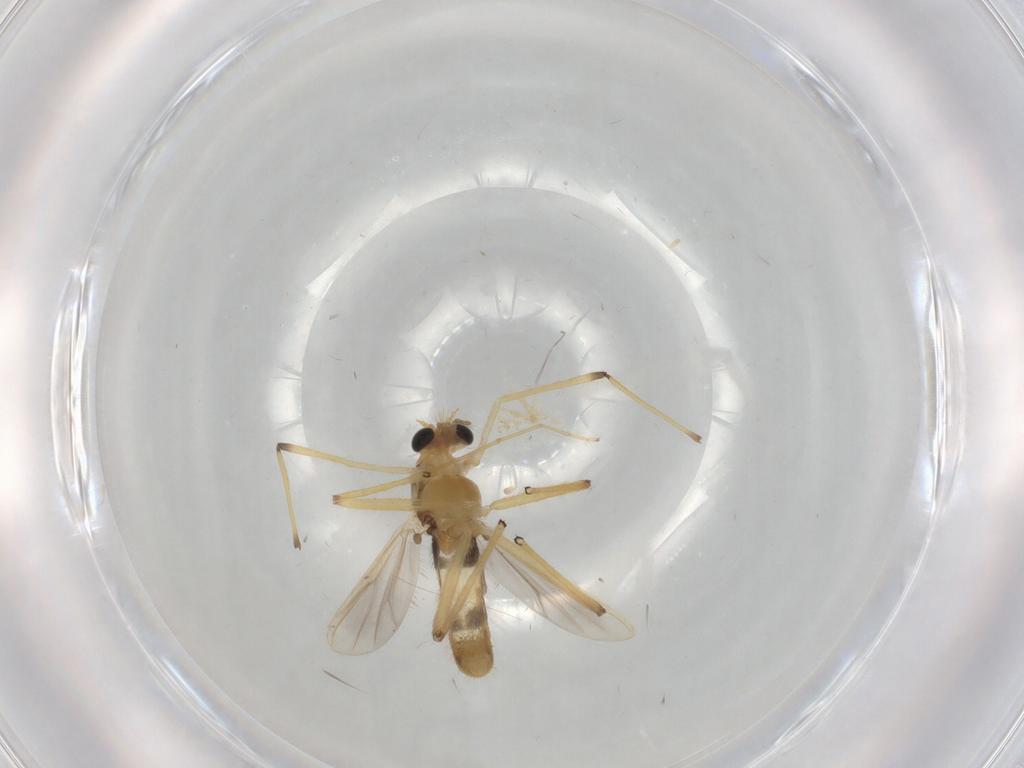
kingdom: Animalia
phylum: Arthropoda
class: Insecta
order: Diptera
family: Chironomidae
